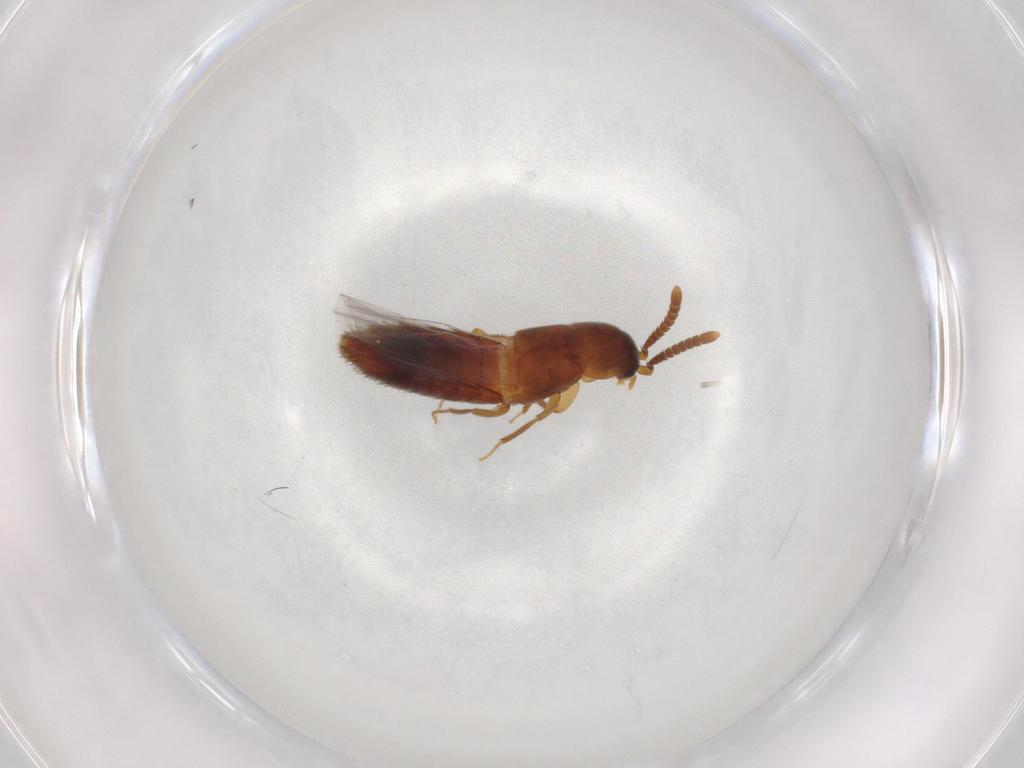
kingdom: Animalia
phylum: Arthropoda
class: Insecta
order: Coleoptera
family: Staphylinidae
